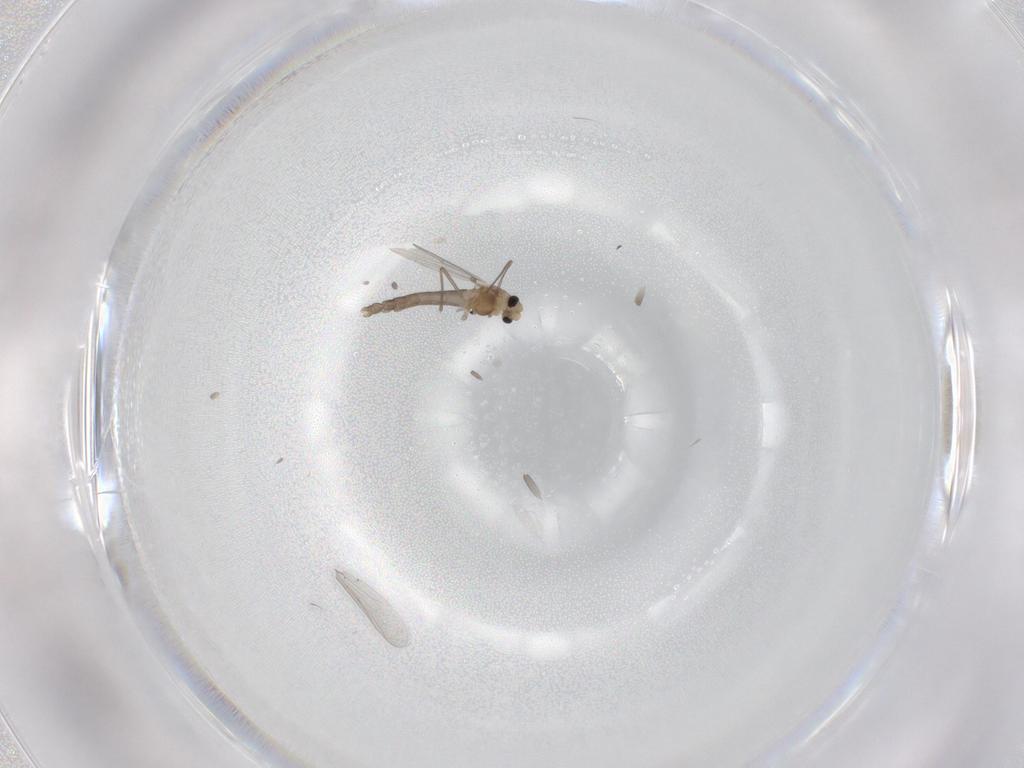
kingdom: Animalia
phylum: Arthropoda
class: Insecta
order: Diptera
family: Chironomidae
